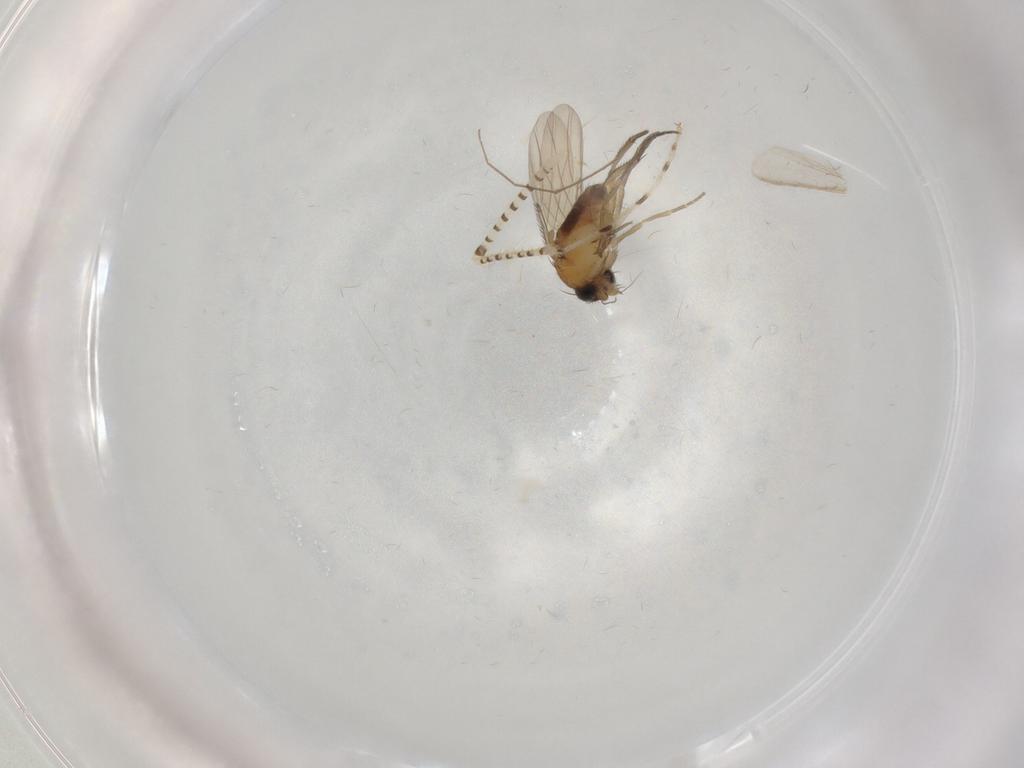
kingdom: Animalia
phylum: Arthropoda
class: Insecta
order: Diptera
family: Phoridae
